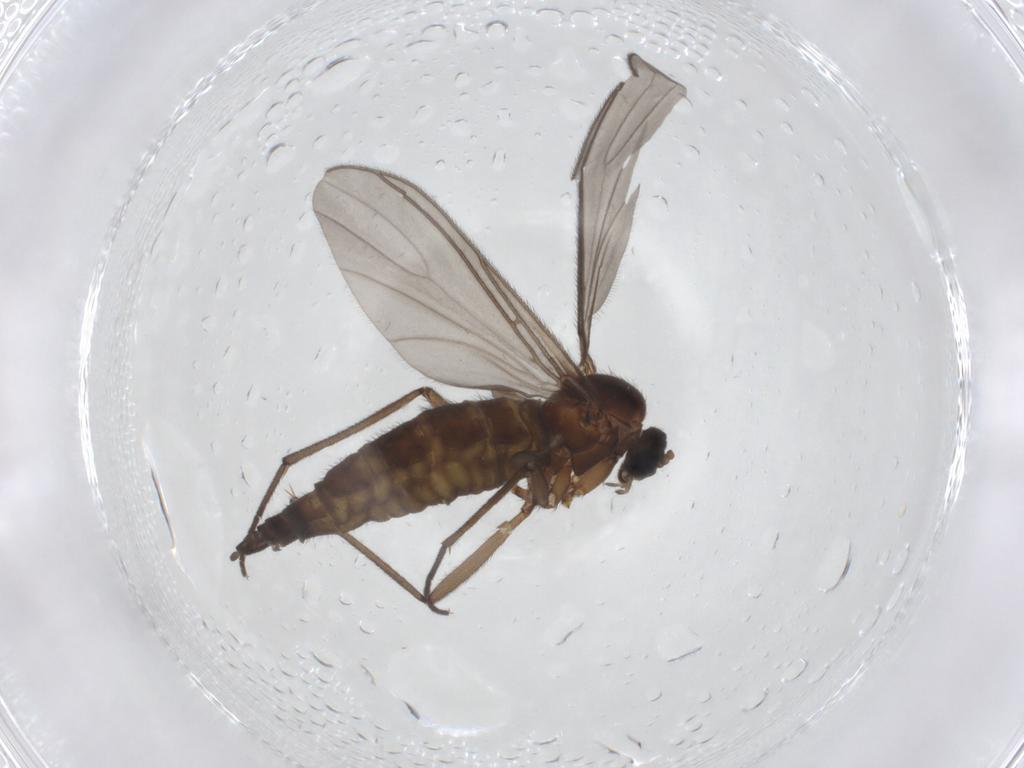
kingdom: Animalia
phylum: Arthropoda
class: Insecta
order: Diptera
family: Sciaridae
